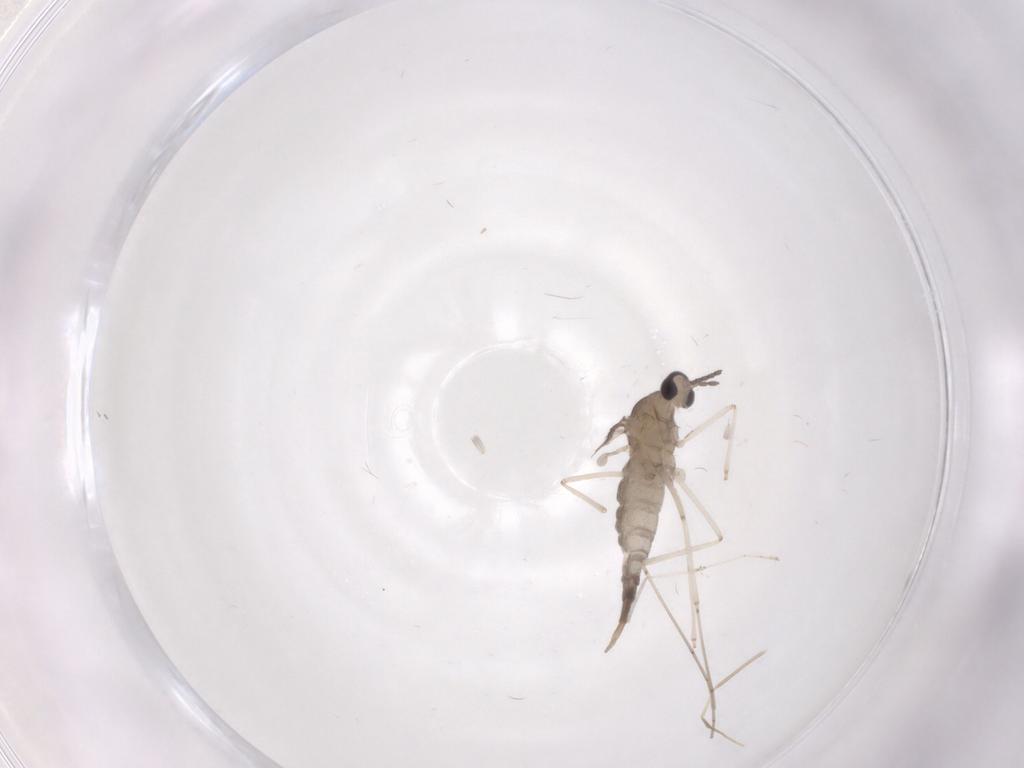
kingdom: Animalia
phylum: Arthropoda
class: Insecta
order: Diptera
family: Cecidomyiidae
